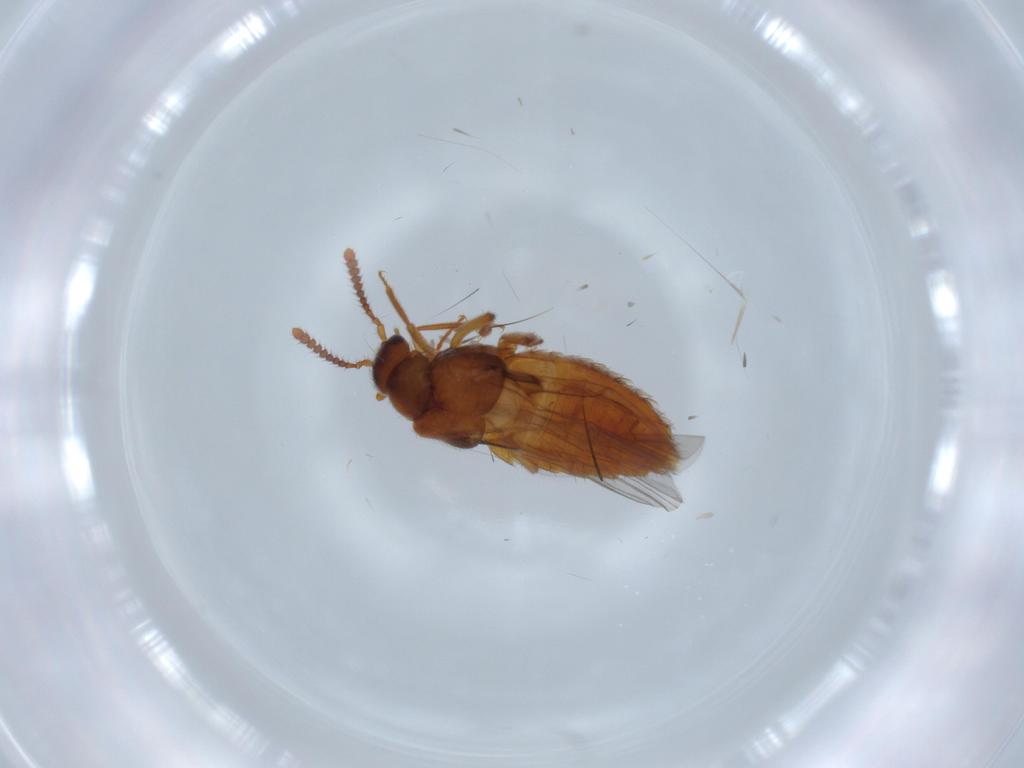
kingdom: Animalia
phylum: Arthropoda
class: Insecta
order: Coleoptera
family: Staphylinidae
